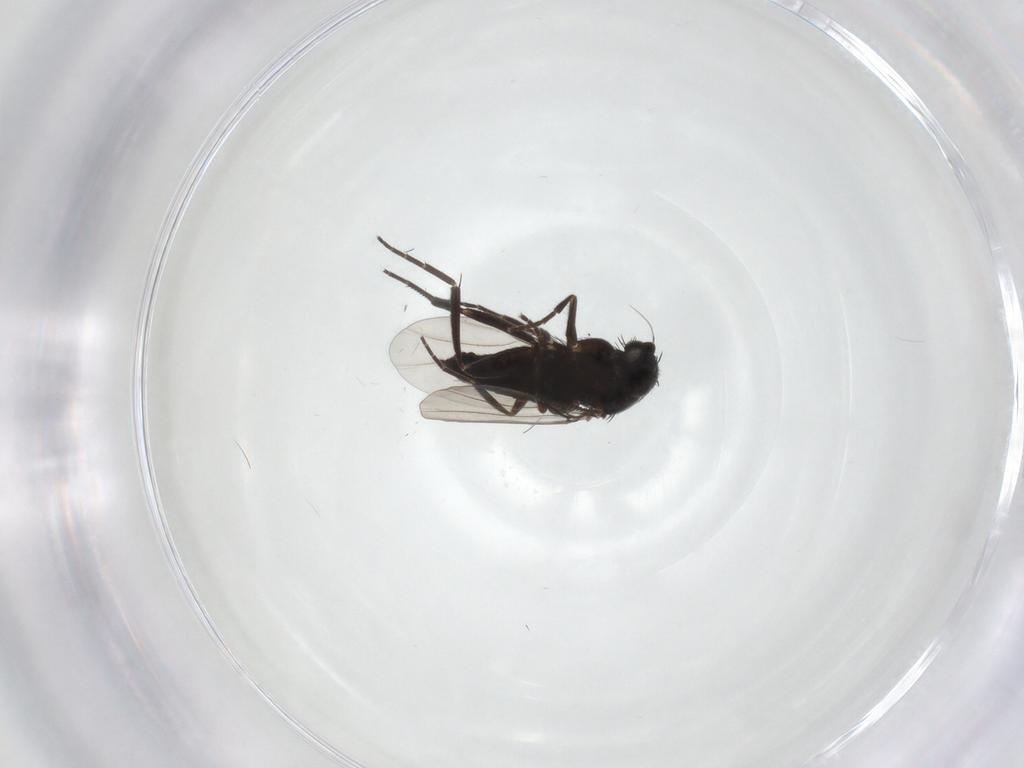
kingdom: Animalia
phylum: Arthropoda
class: Insecta
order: Diptera
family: Phoridae
